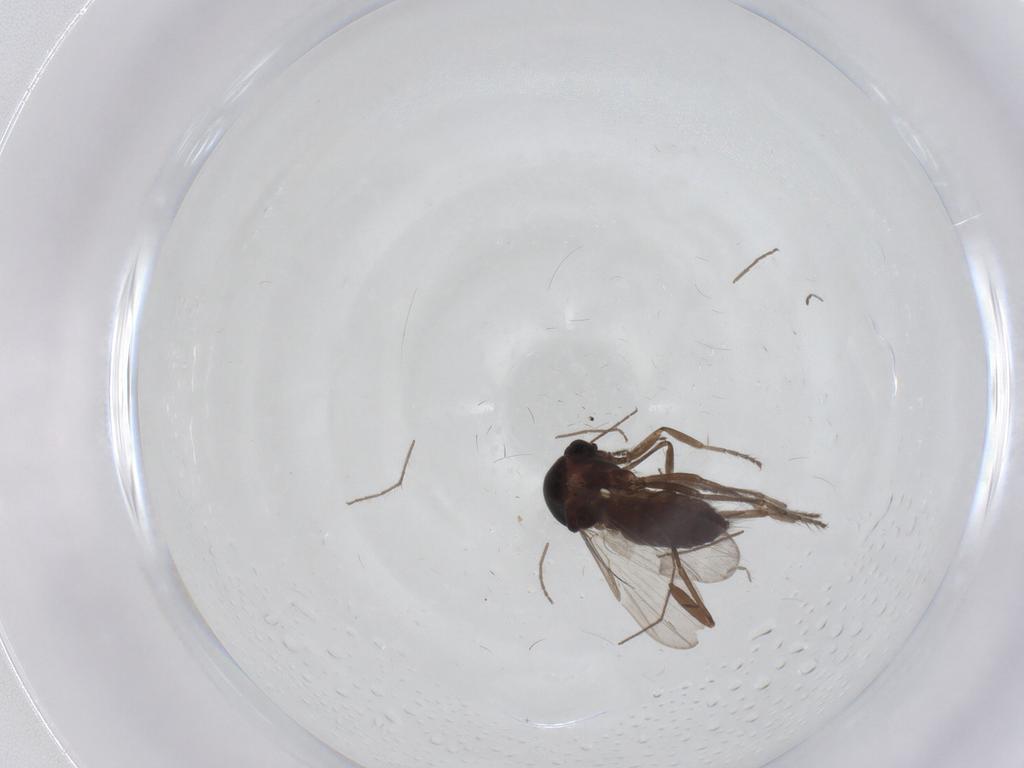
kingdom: Animalia
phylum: Arthropoda
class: Insecta
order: Diptera
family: Ceratopogonidae
